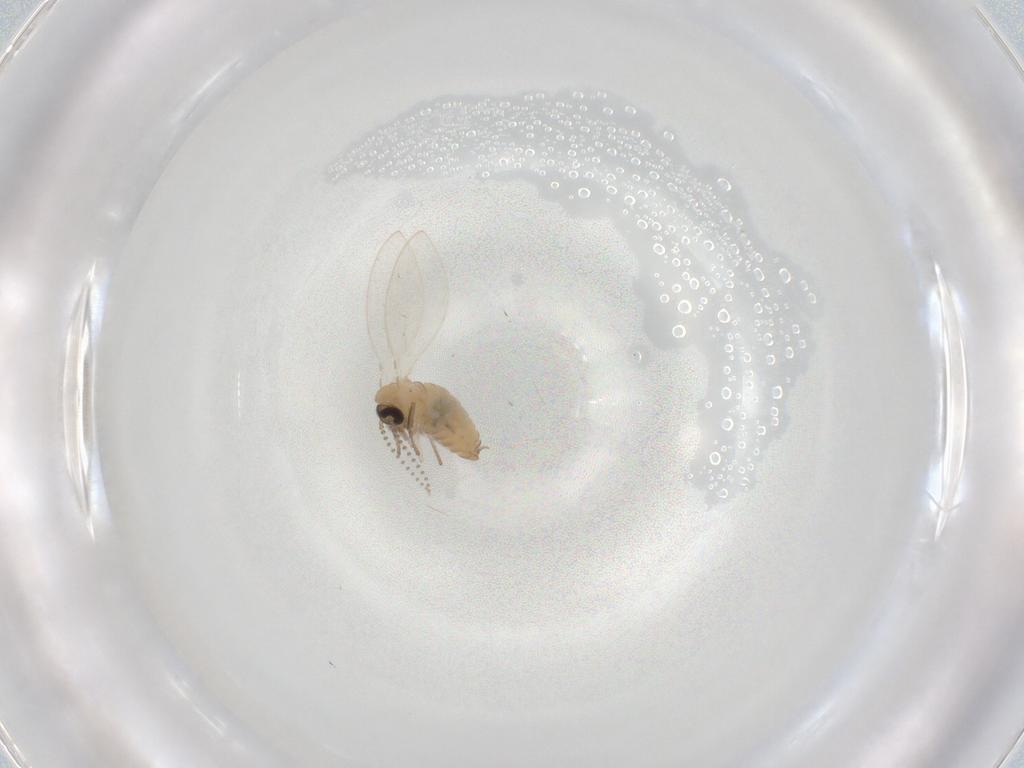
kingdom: Animalia
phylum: Arthropoda
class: Insecta
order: Diptera
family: Psychodidae
